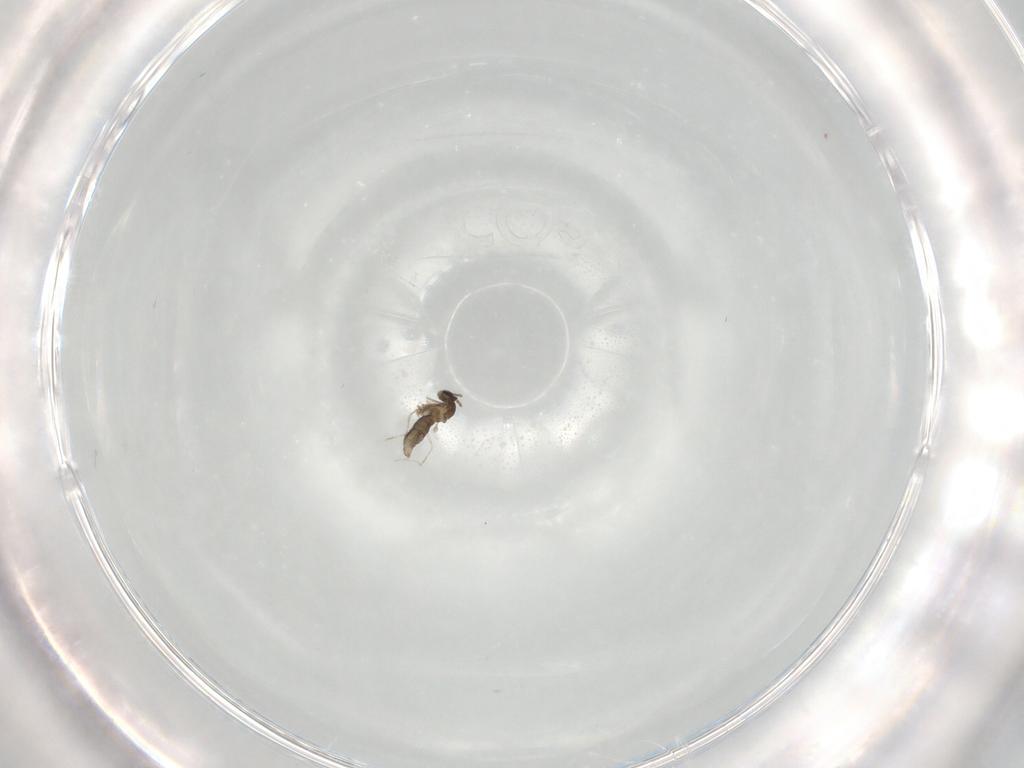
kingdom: Animalia
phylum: Arthropoda
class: Insecta
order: Diptera
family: Cecidomyiidae
